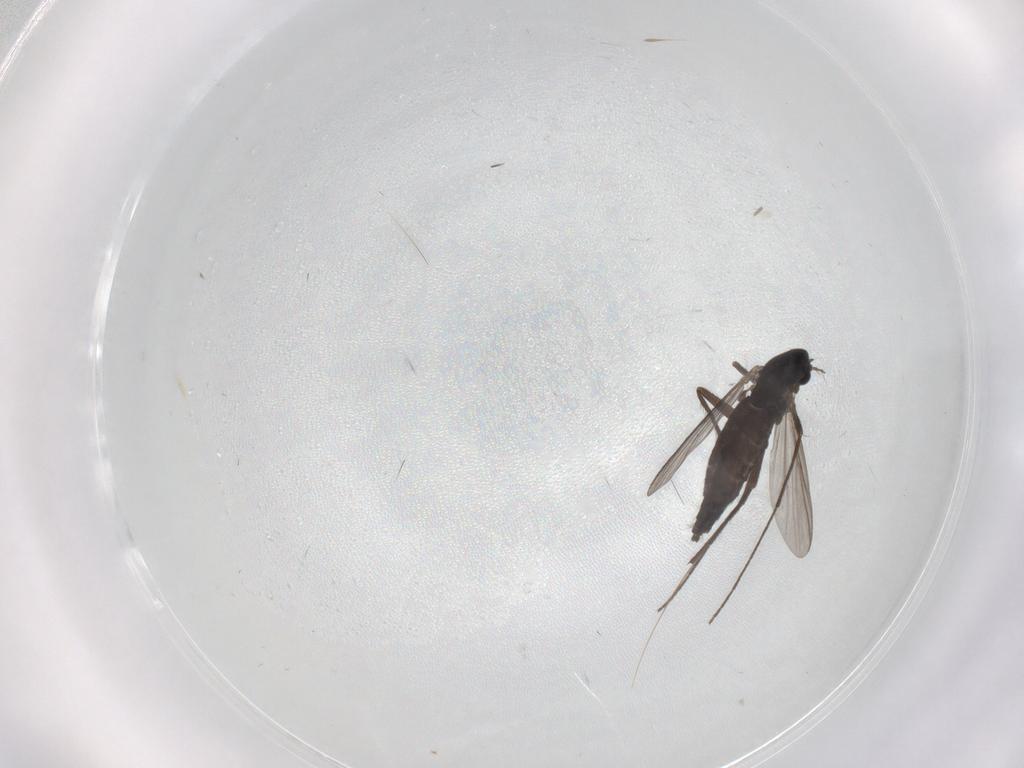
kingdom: Animalia
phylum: Arthropoda
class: Insecta
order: Diptera
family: Chironomidae
